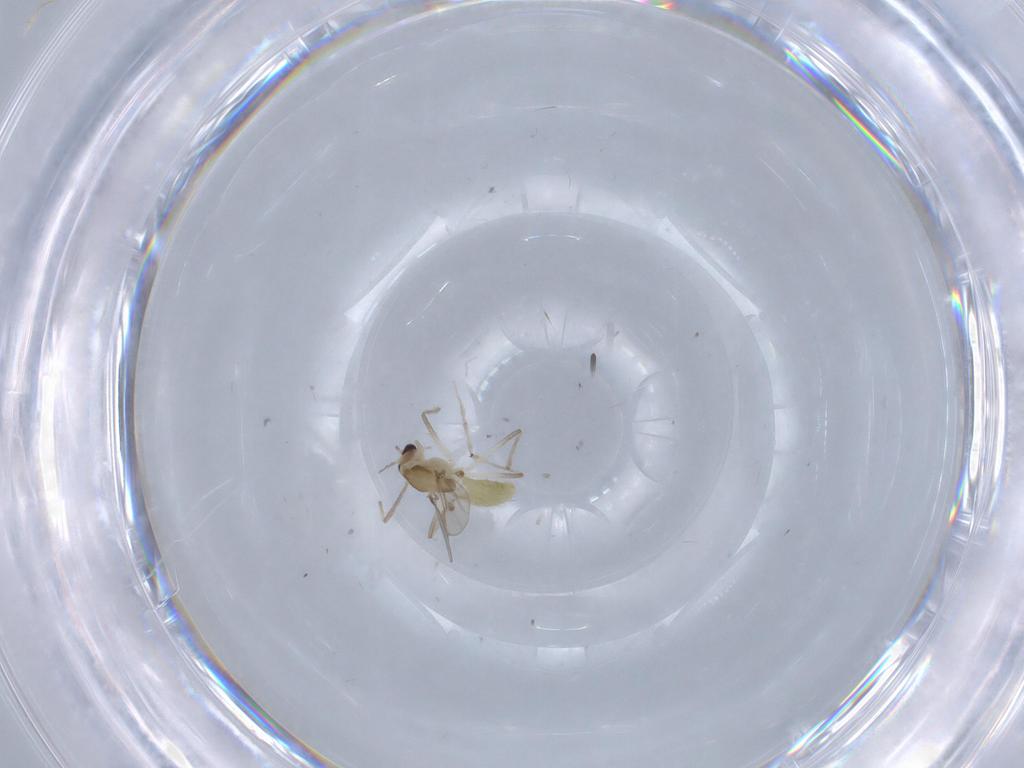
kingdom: Animalia
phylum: Arthropoda
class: Insecta
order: Diptera
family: Chironomidae
